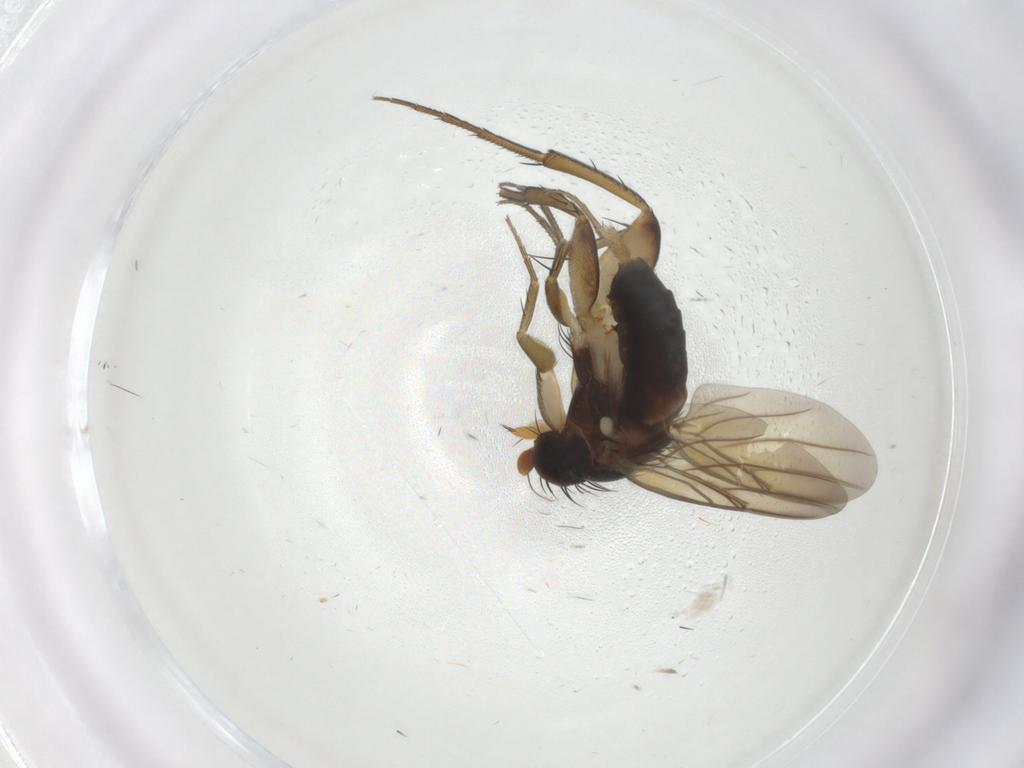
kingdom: Animalia
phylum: Arthropoda
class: Insecta
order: Diptera
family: Phoridae
